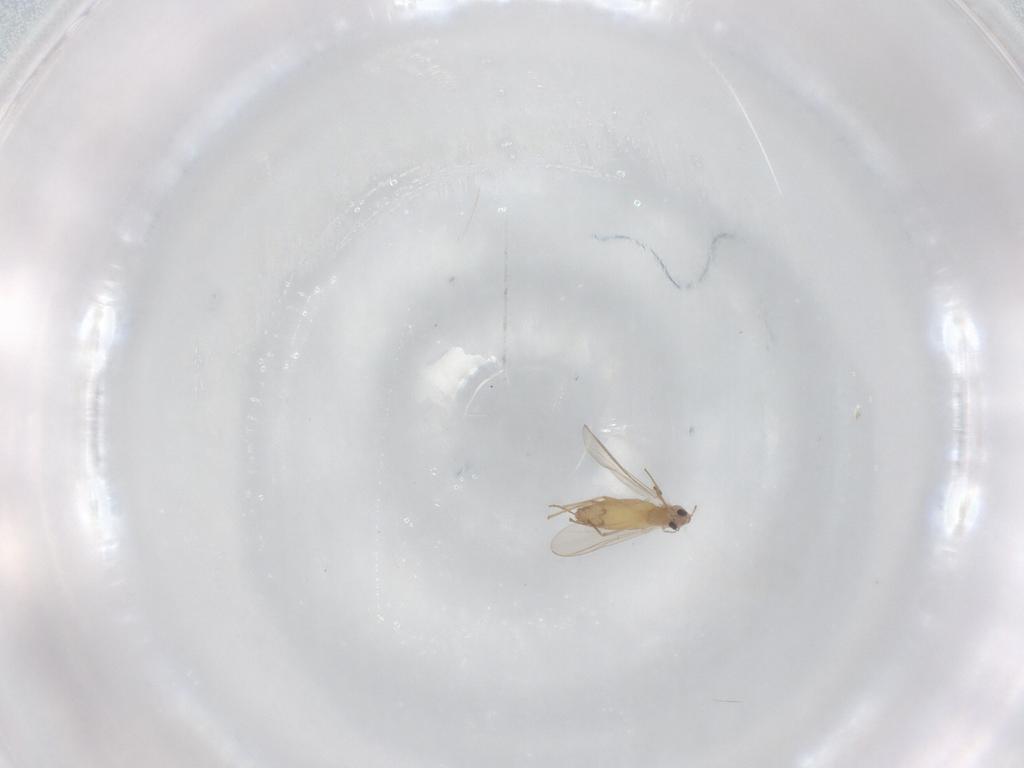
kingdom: Animalia
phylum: Arthropoda
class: Insecta
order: Diptera
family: Chironomidae
